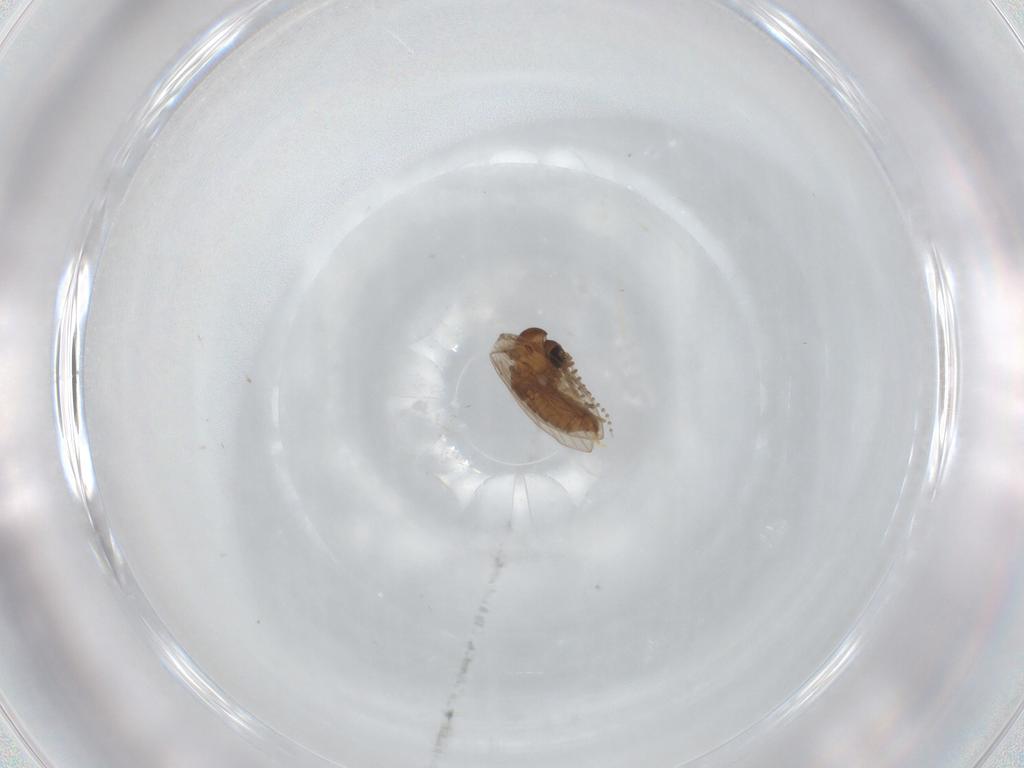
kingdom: Animalia
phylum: Arthropoda
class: Insecta
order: Diptera
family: Psychodidae
